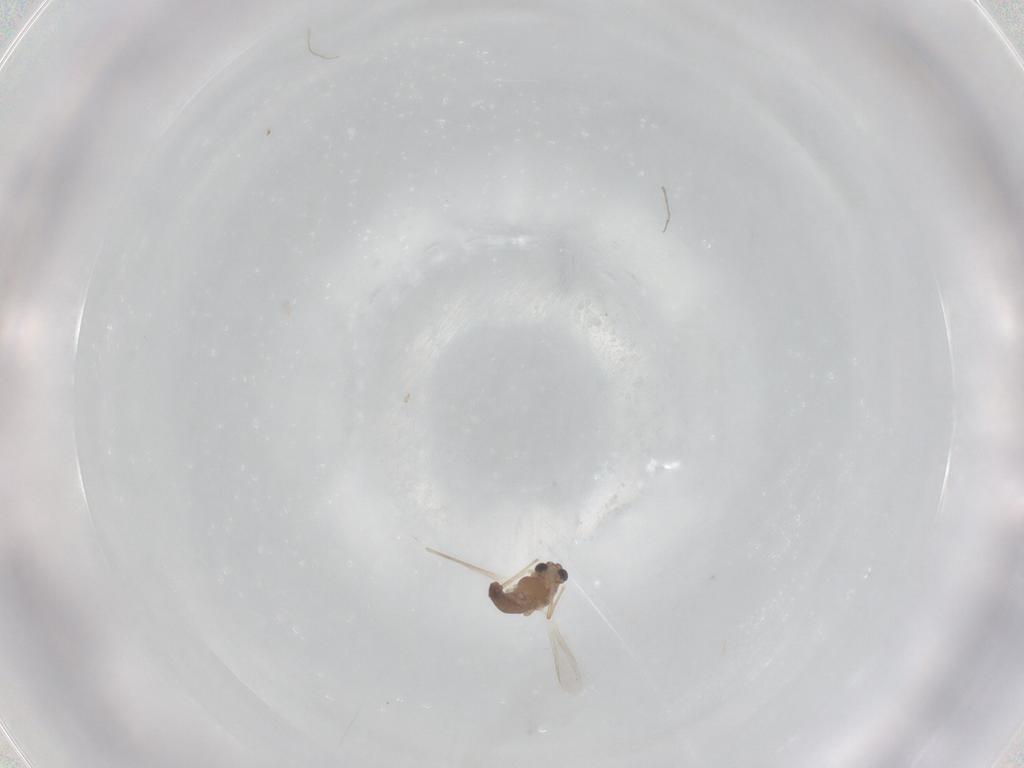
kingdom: Animalia
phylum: Arthropoda
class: Insecta
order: Diptera
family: Chironomidae
